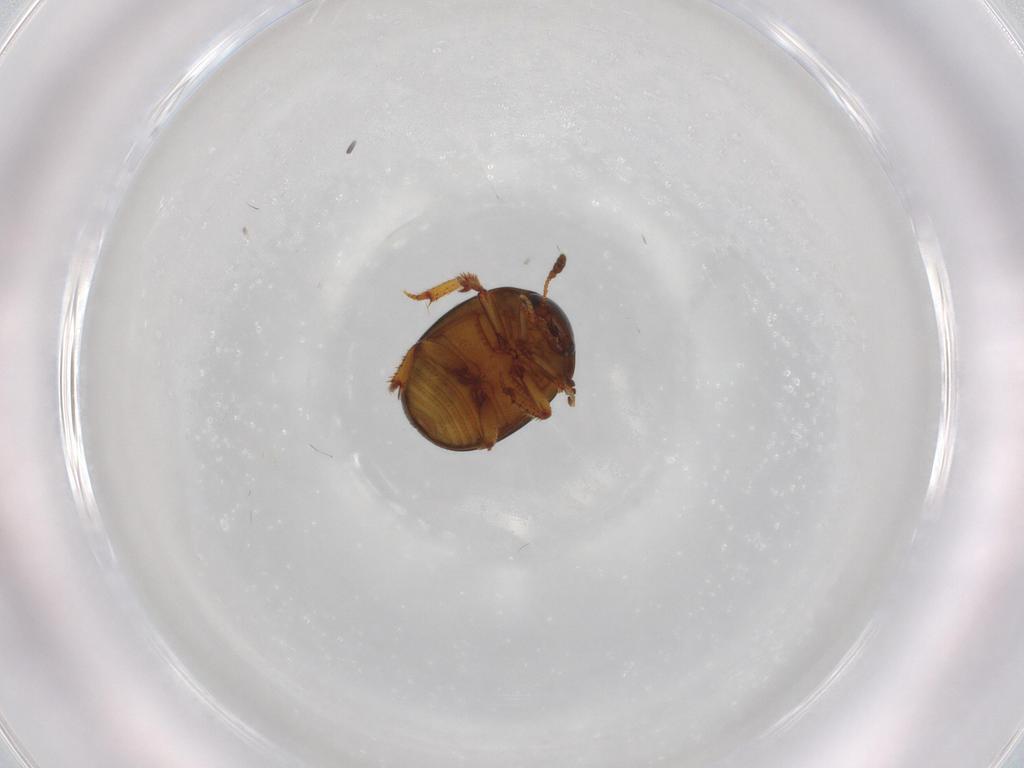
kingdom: Animalia
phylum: Arthropoda
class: Insecta
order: Coleoptera
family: Leiodidae
